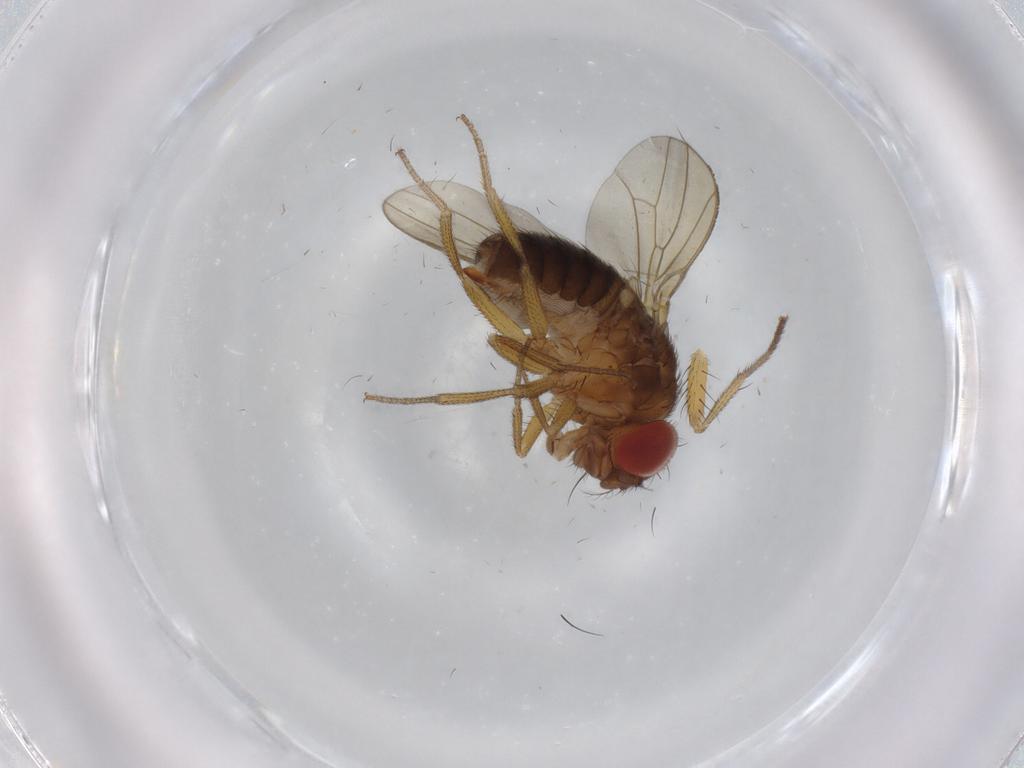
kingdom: Animalia
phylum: Arthropoda
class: Insecta
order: Diptera
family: Drosophilidae
